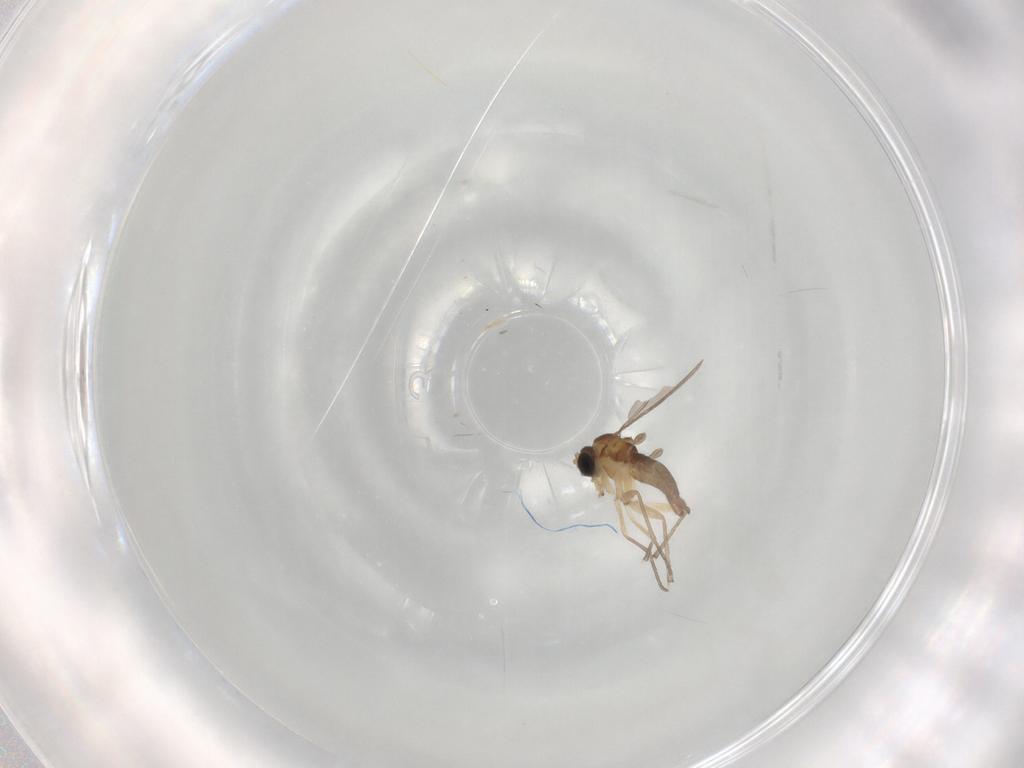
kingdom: Animalia
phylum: Arthropoda
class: Insecta
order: Diptera
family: Sciaridae
